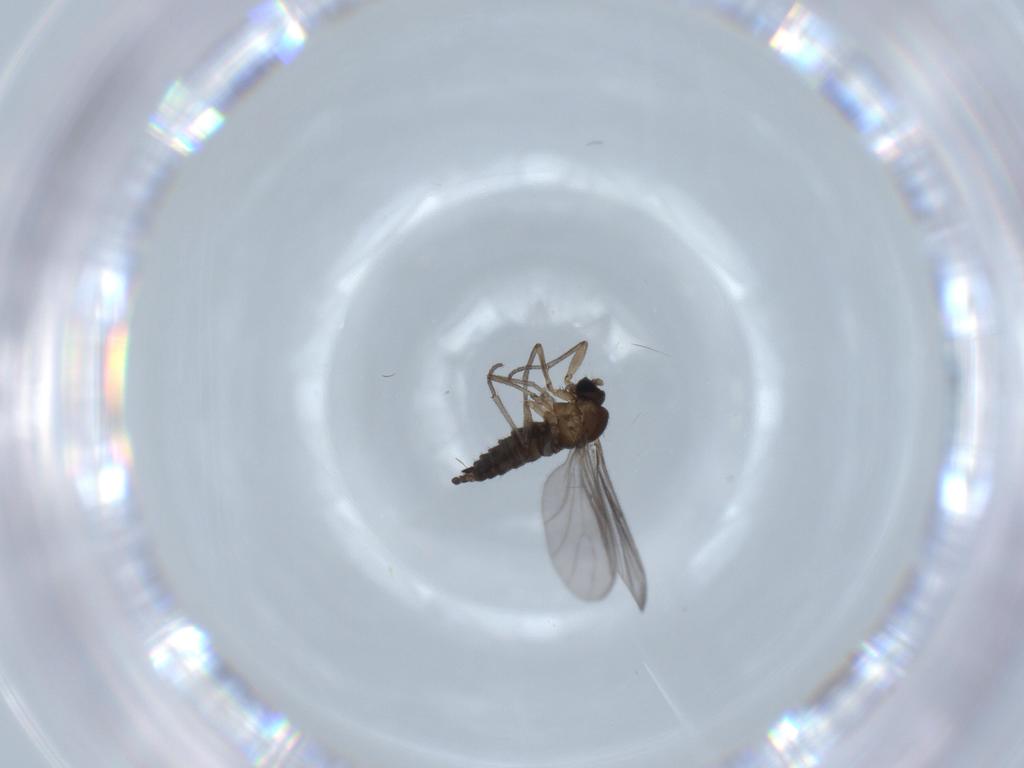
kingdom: Animalia
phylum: Arthropoda
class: Insecta
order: Diptera
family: Sciaridae
